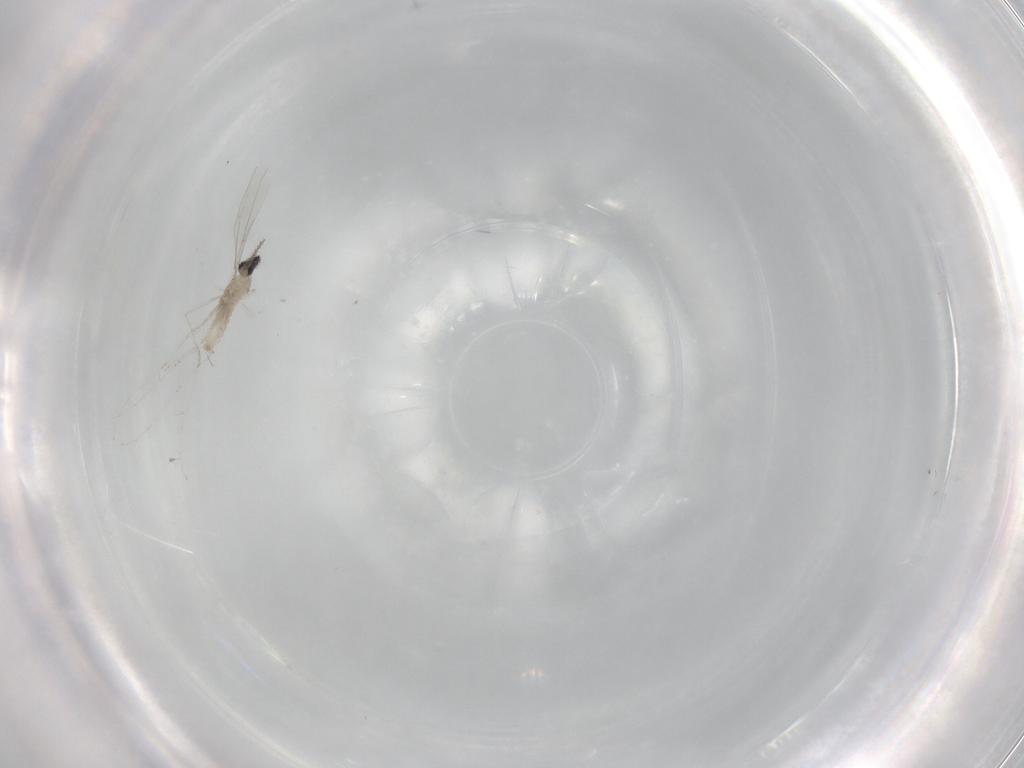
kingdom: Animalia
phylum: Arthropoda
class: Insecta
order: Diptera
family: Cecidomyiidae
